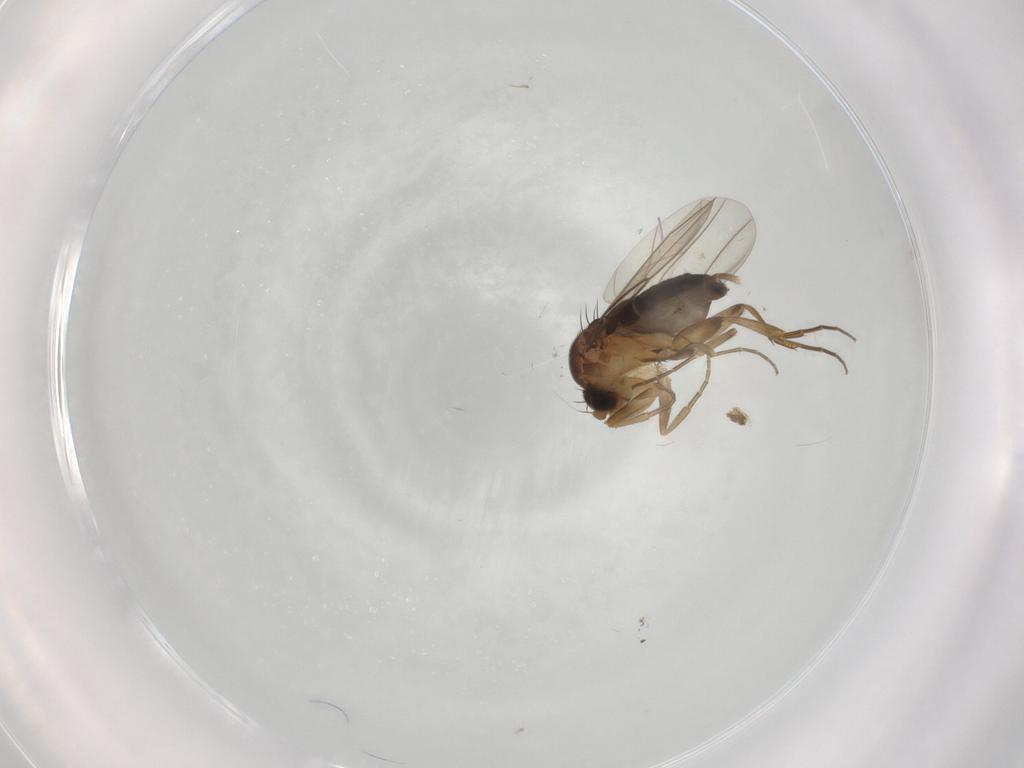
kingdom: Animalia
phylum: Arthropoda
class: Insecta
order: Diptera
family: Phoridae
